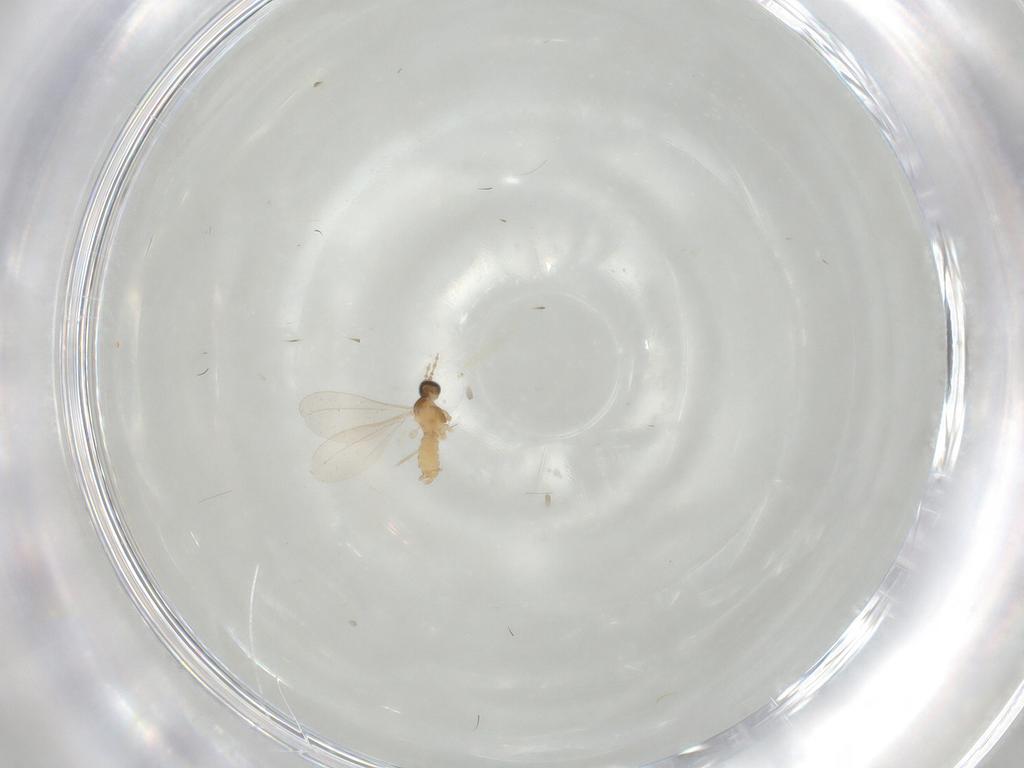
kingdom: Animalia
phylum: Arthropoda
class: Insecta
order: Diptera
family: Cecidomyiidae
